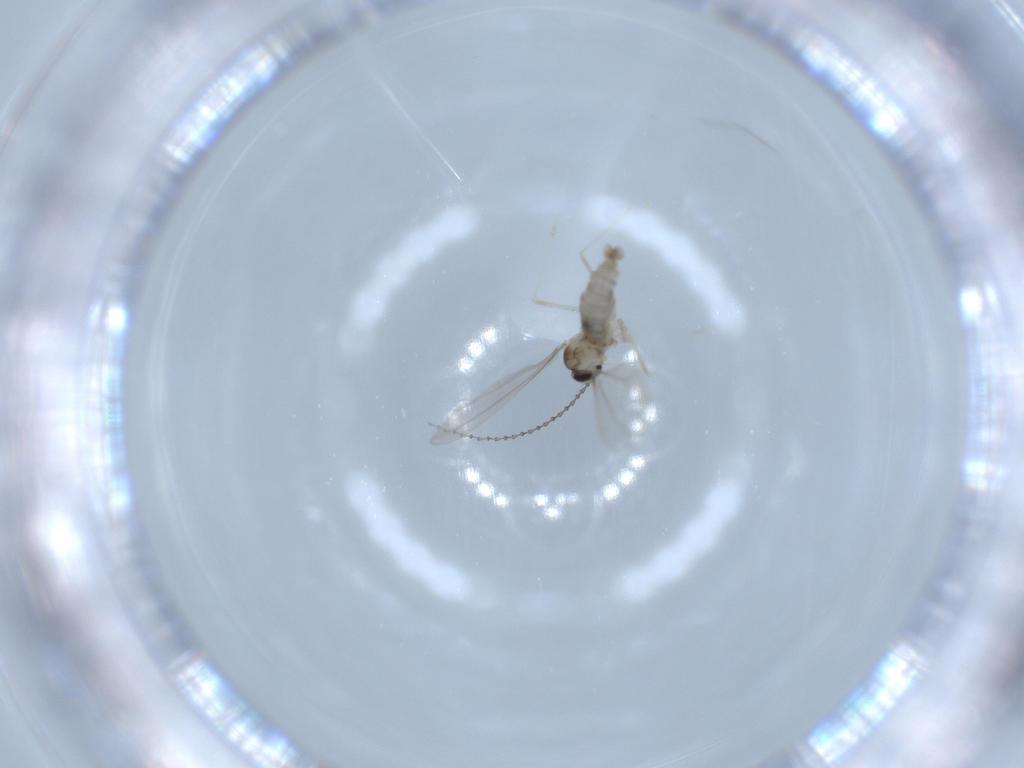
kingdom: Animalia
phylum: Arthropoda
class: Insecta
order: Diptera
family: Cecidomyiidae
